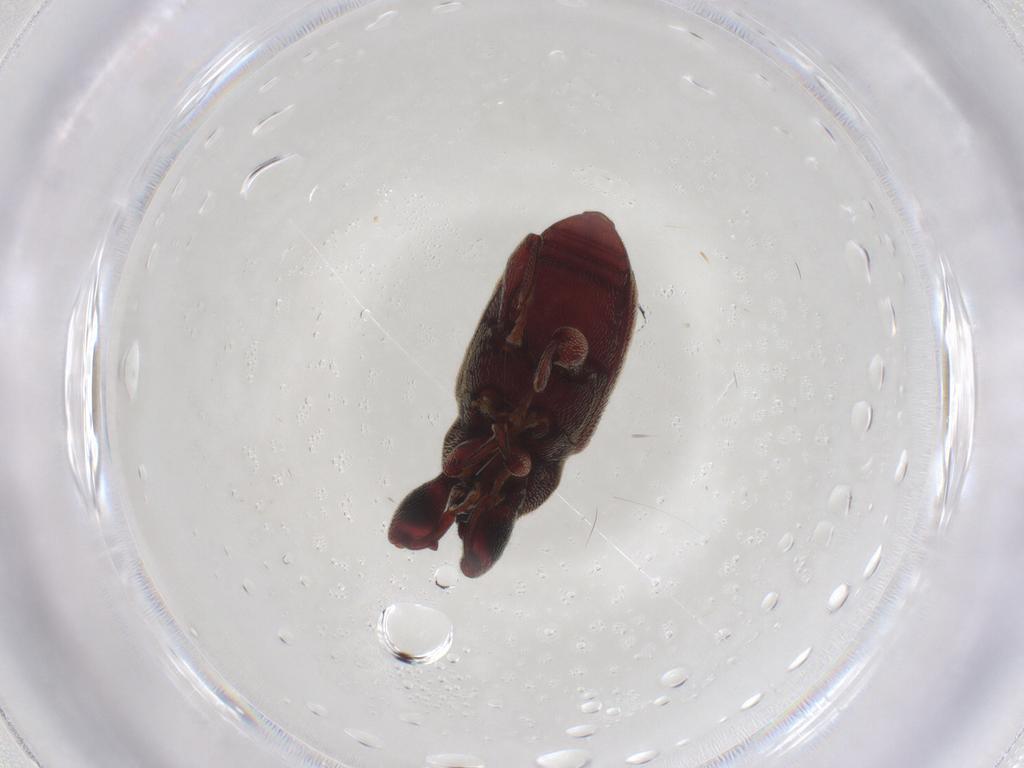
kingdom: Animalia
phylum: Arthropoda
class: Insecta
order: Coleoptera
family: Curculionidae
